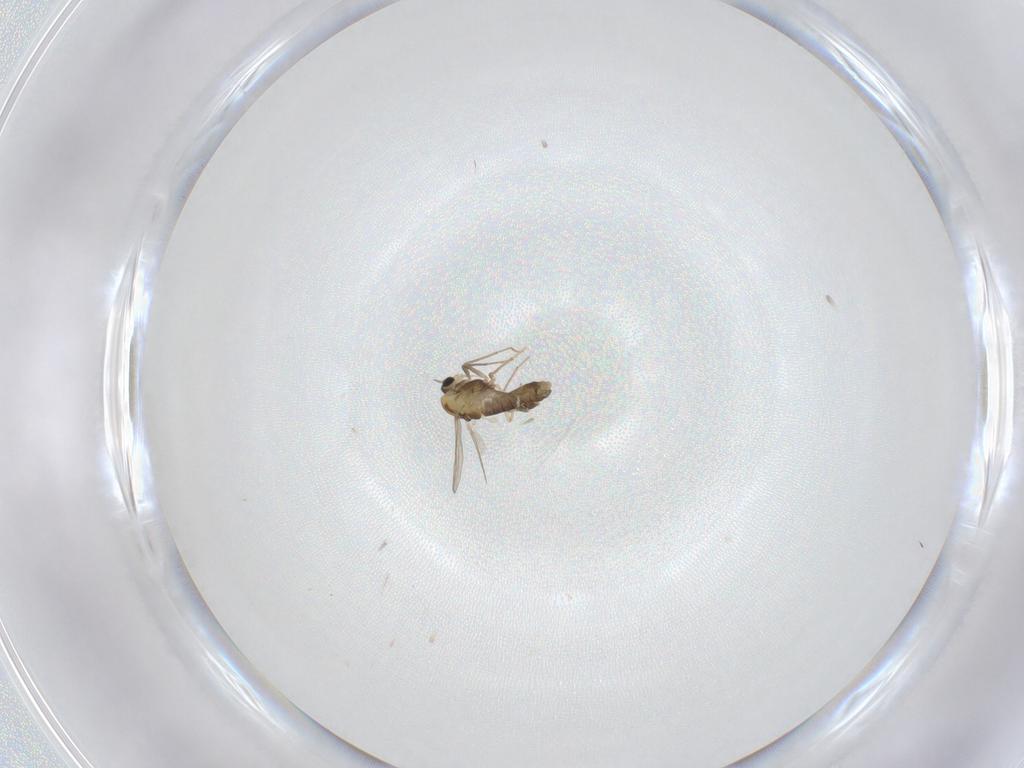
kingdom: Animalia
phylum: Arthropoda
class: Insecta
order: Diptera
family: Chironomidae
